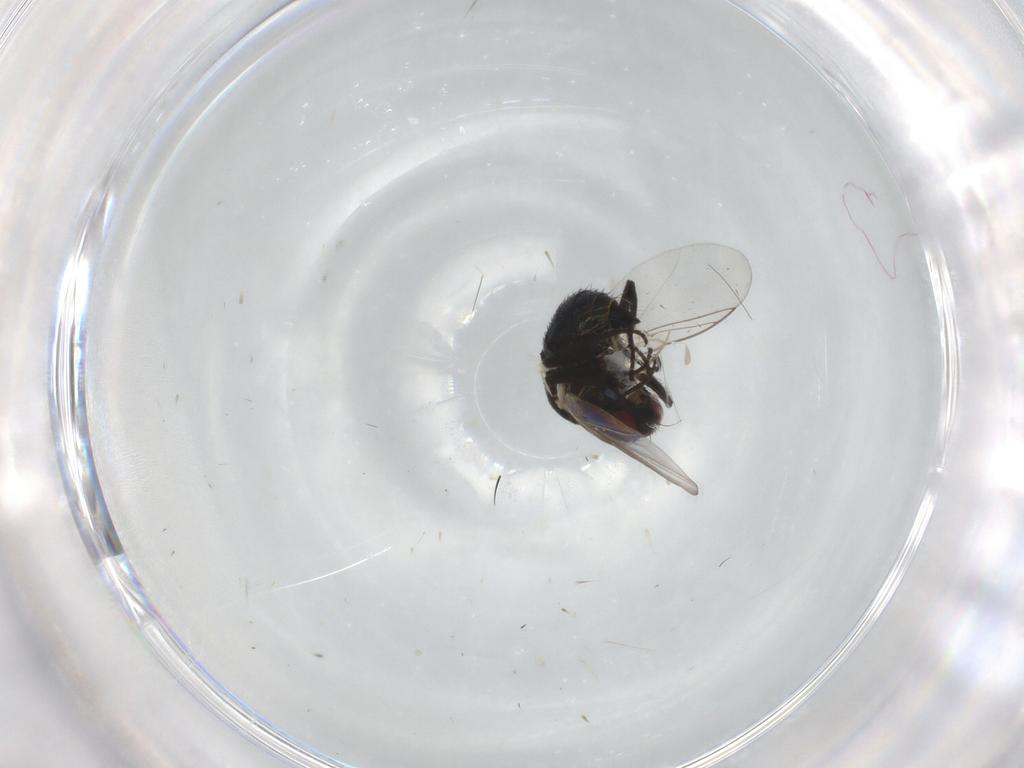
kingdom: Animalia
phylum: Arthropoda
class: Insecta
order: Diptera
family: Agromyzidae
